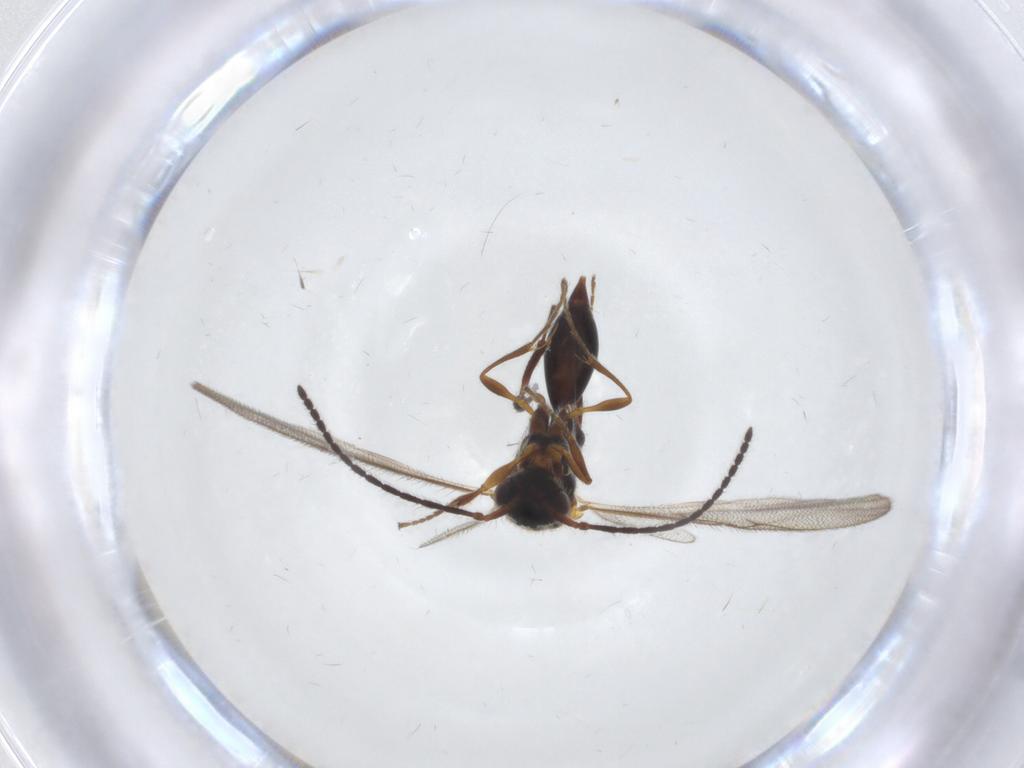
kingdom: Animalia
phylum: Arthropoda
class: Insecta
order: Hymenoptera
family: Diapriidae
